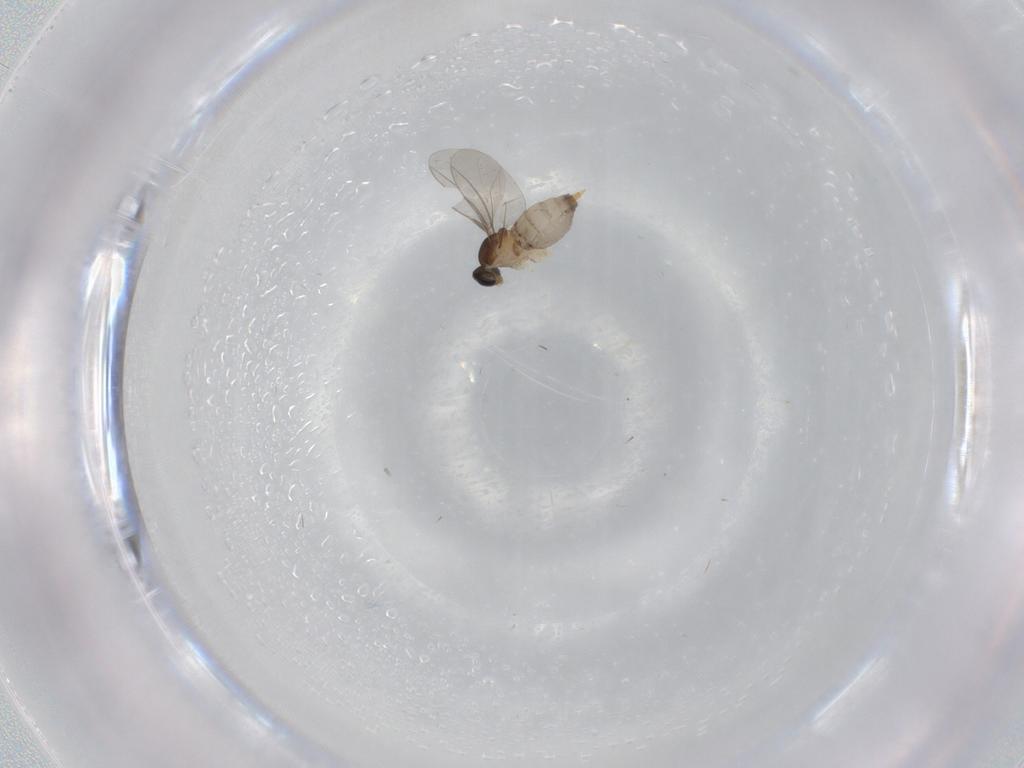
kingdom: Animalia
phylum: Arthropoda
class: Insecta
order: Diptera
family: Cecidomyiidae
